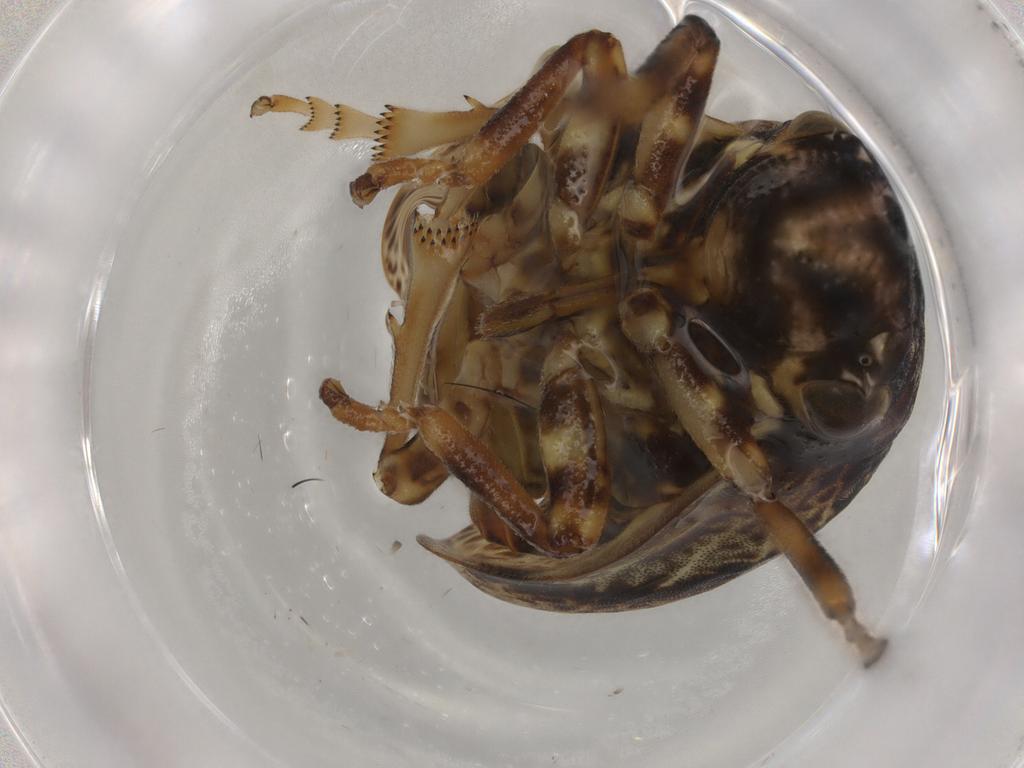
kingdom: Animalia
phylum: Arthropoda
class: Insecta
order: Hemiptera
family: Aphrophoridae
